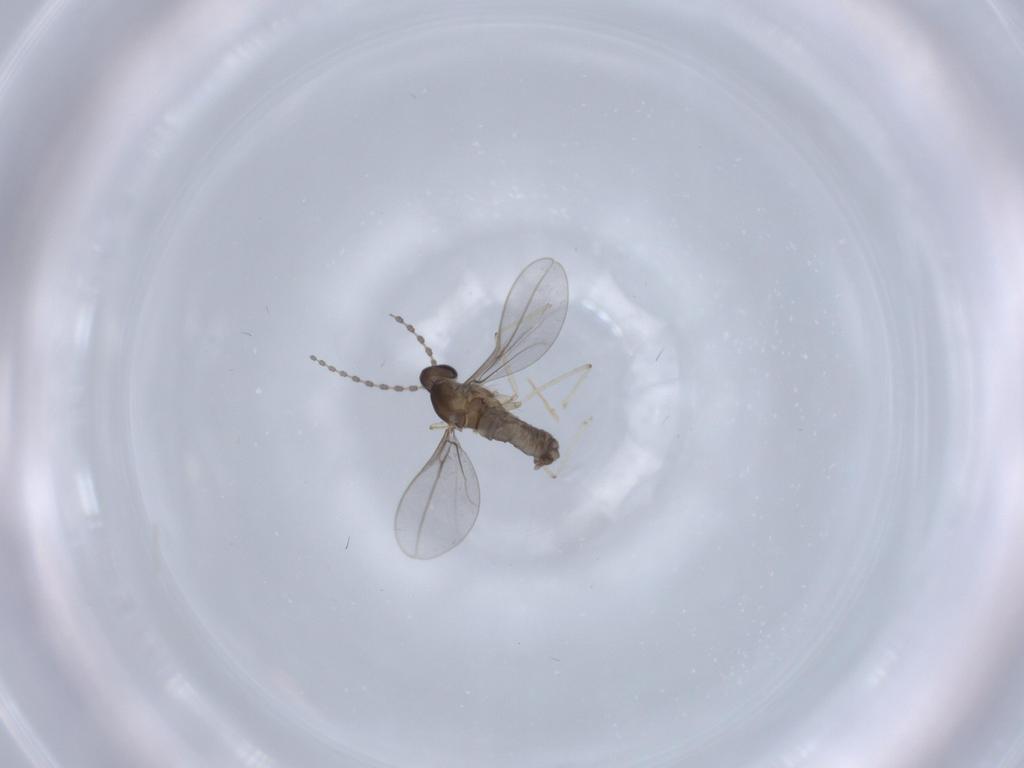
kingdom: Animalia
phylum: Arthropoda
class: Insecta
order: Diptera
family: Cecidomyiidae
